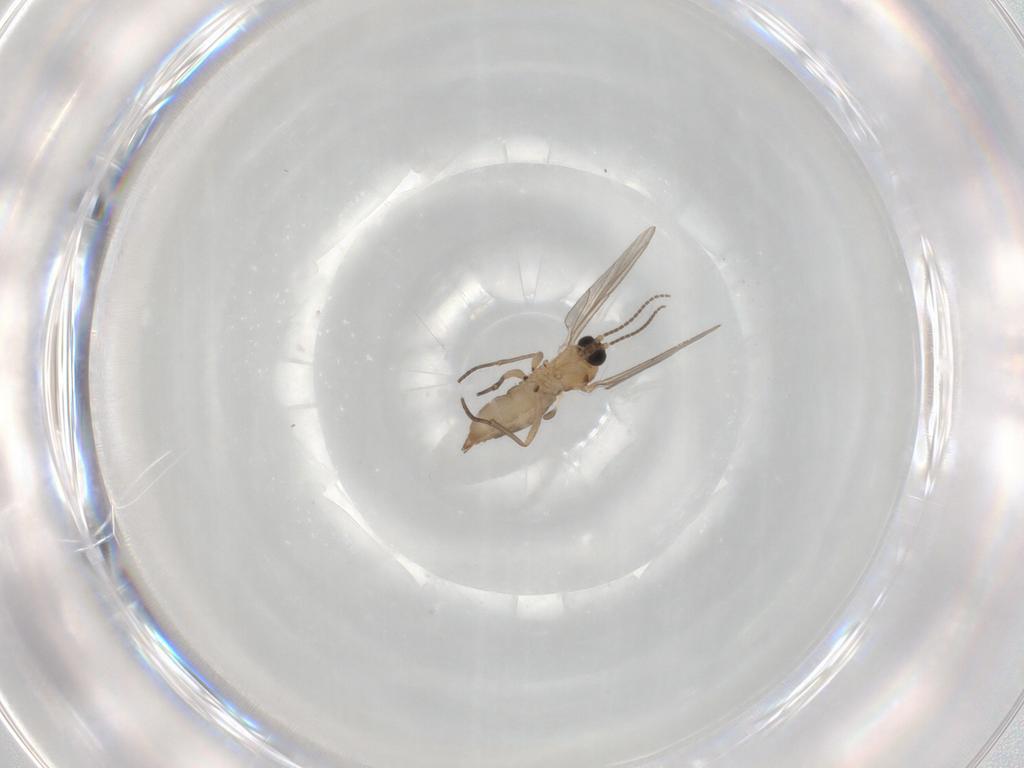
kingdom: Animalia
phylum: Arthropoda
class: Insecta
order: Diptera
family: Sciaridae
